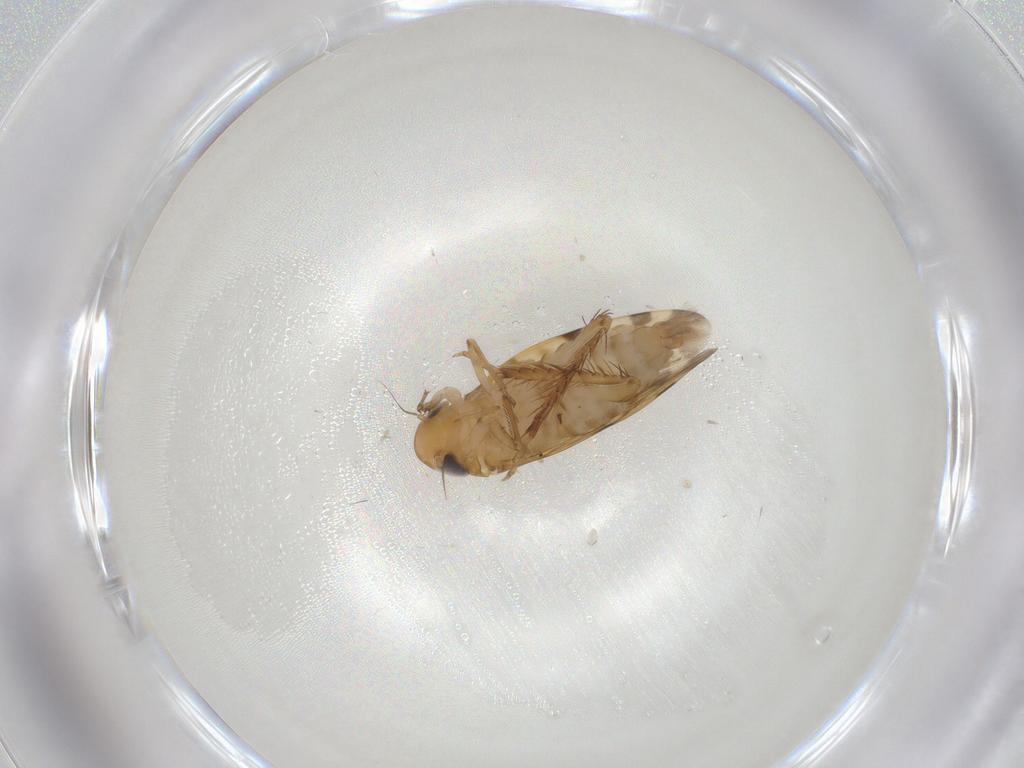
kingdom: Animalia
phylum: Arthropoda
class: Insecta
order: Hemiptera
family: Cicadellidae
